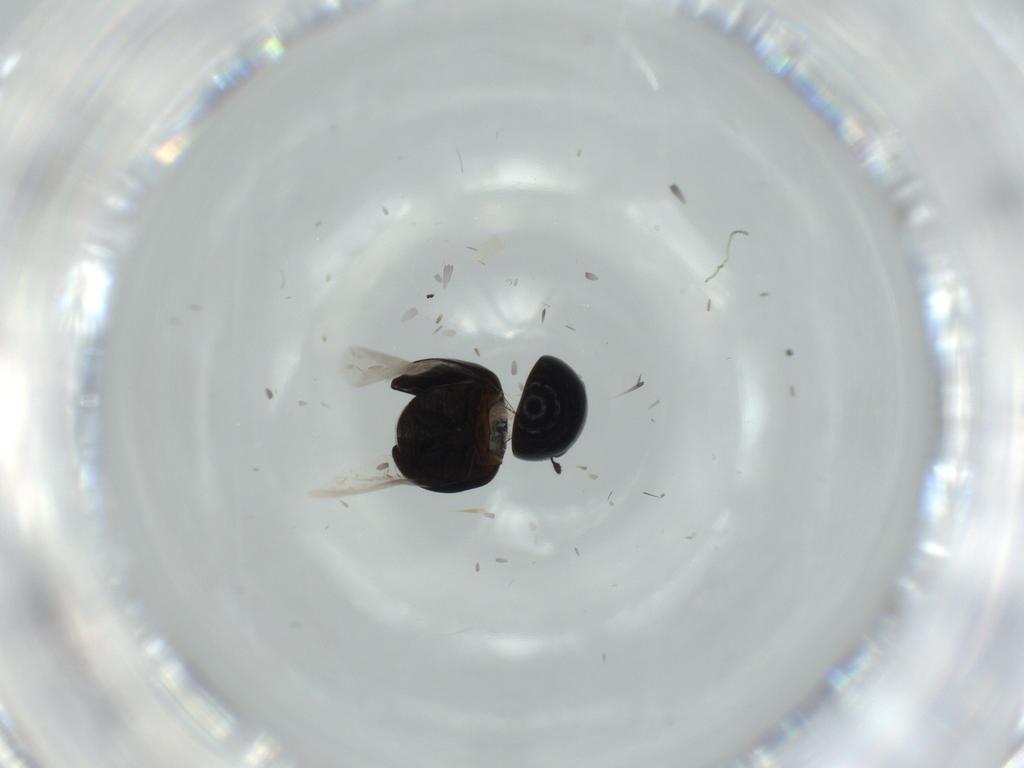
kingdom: Animalia
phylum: Arthropoda
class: Insecta
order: Coleoptera
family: Cybocephalidae
